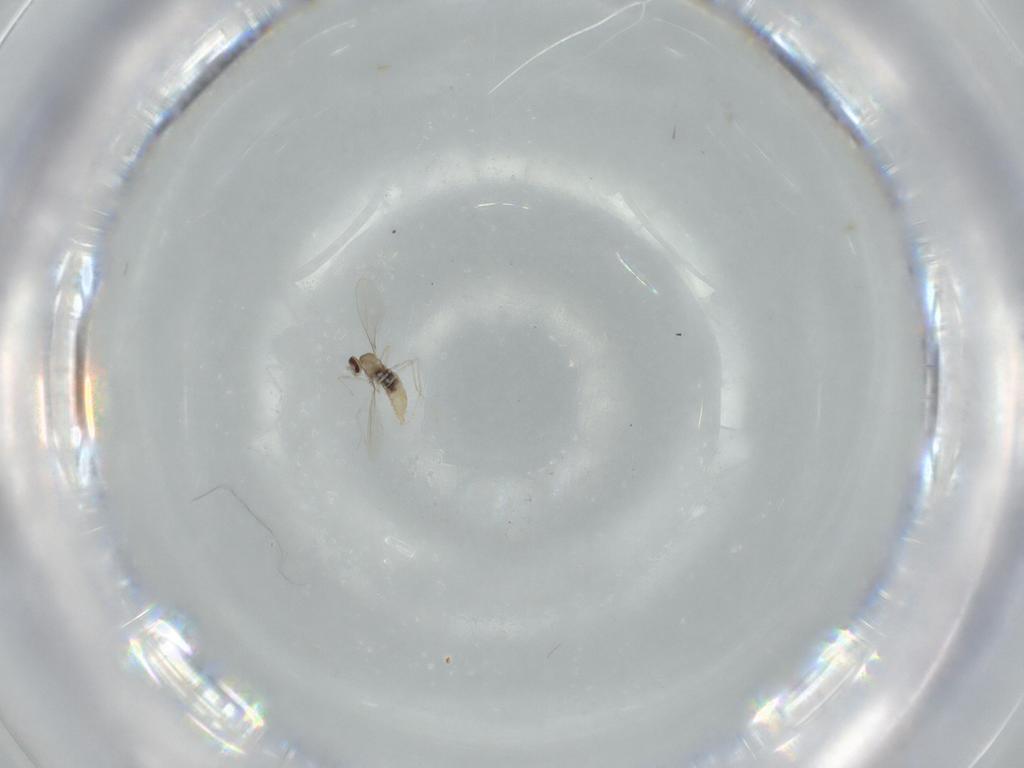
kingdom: Animalia
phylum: Arthropoda
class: Insecta
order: Diptera
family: Cecidomyiidae
